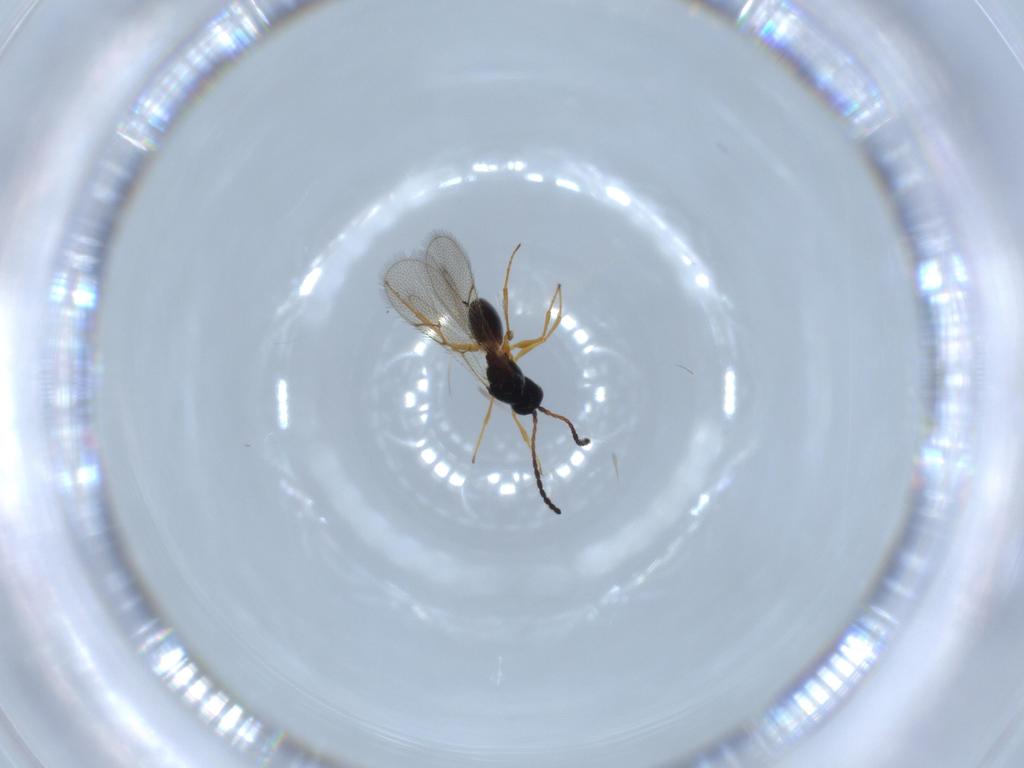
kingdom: Animalia
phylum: Arthropoda
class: Insecta
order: Hymenoptera
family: Figitidae
